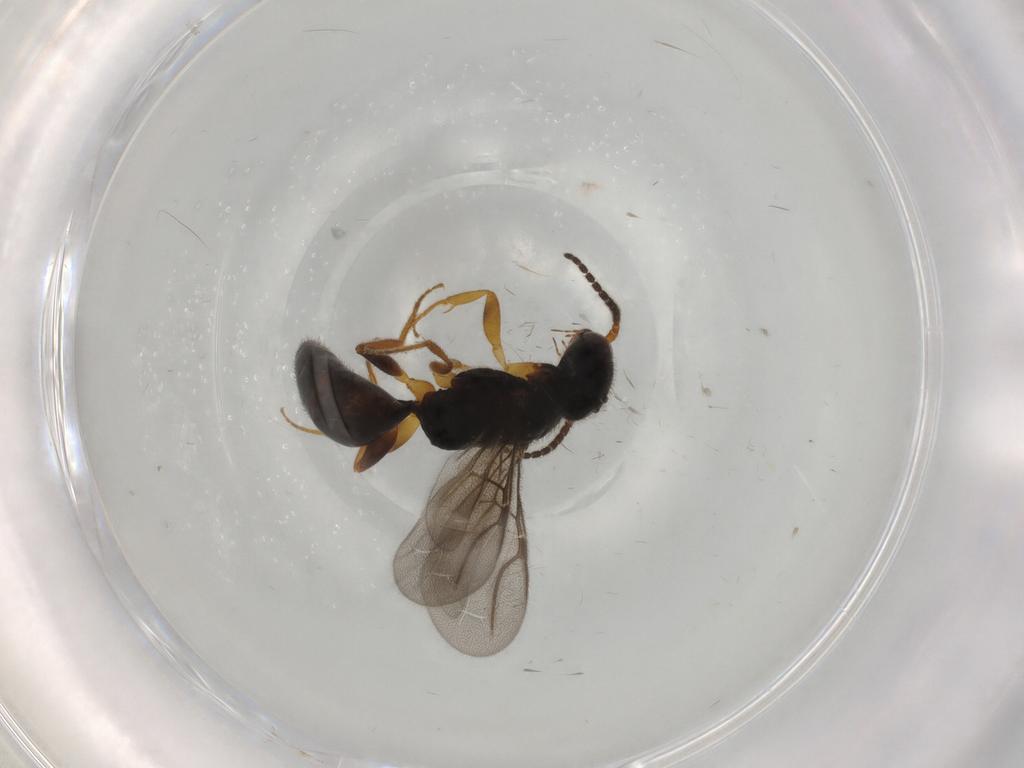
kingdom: Animalia
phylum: Arthropoda
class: Insecta
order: Hymenoptera
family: Bethylidae
